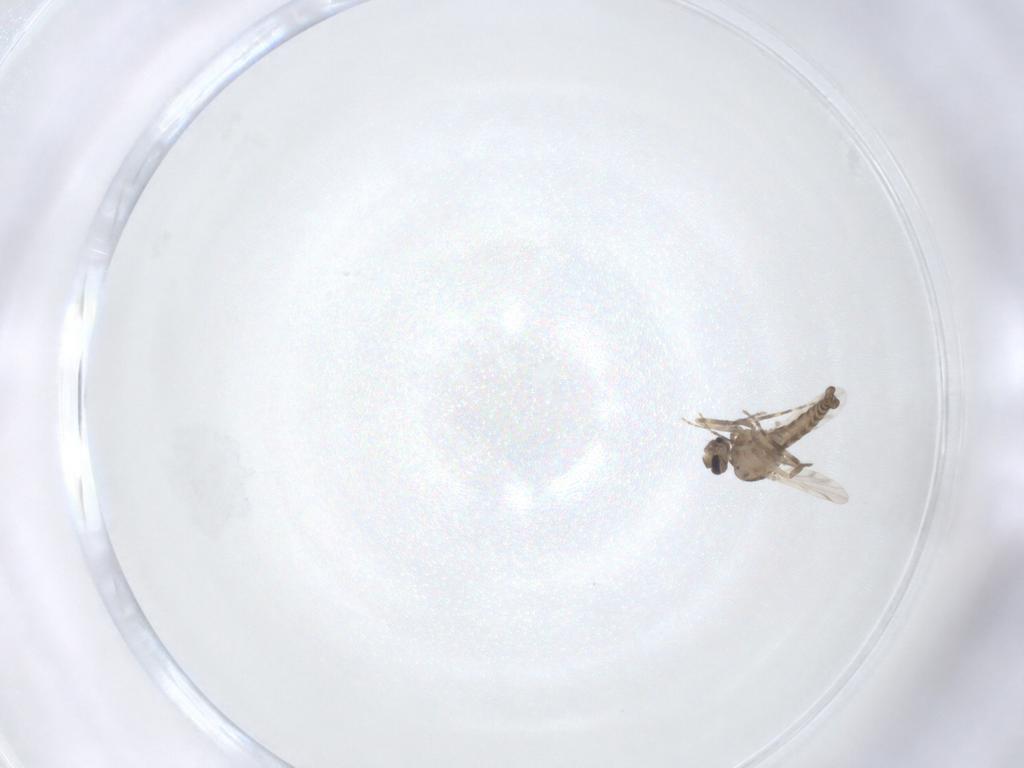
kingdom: Animalia
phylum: Arthropoda
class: Insecta
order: Diptera
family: Ceratopogonidae
